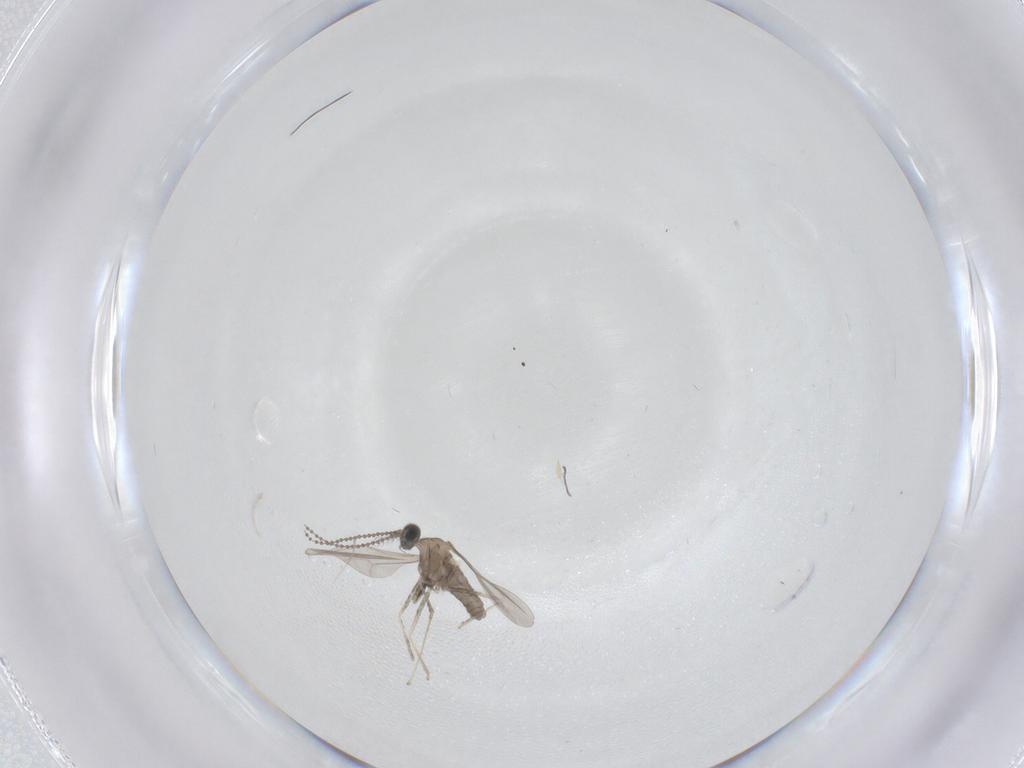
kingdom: Animalia
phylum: Arthropoda
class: Insecta
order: Diptera
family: Cecidomyiidae
